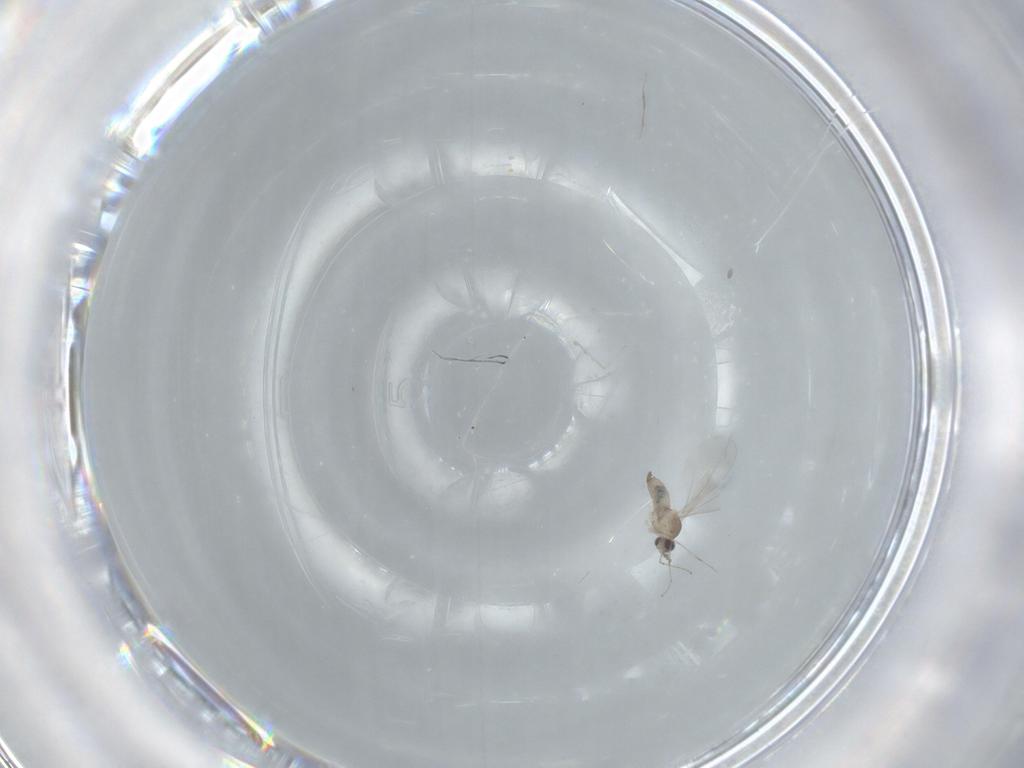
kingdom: Animalia
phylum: Arthropoda
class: Insecta
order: Diptera
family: Cecidomyiidae
